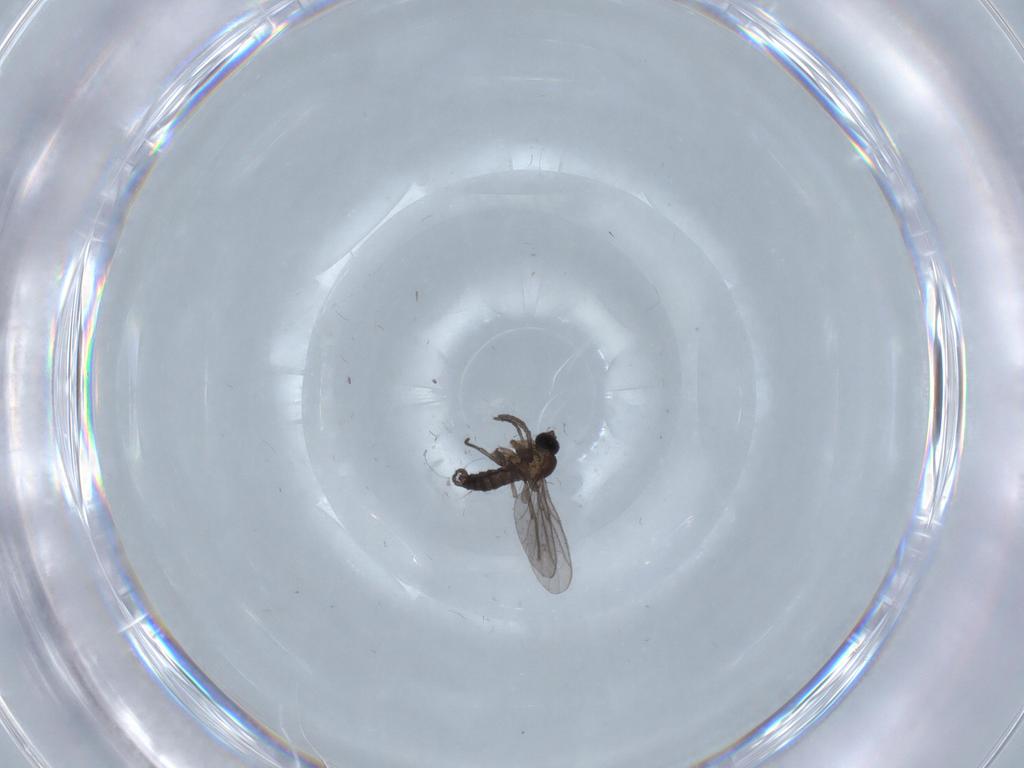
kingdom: Animalia
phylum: Arthropoda
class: Insecta
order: Diptera
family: Cecidomyiidae
